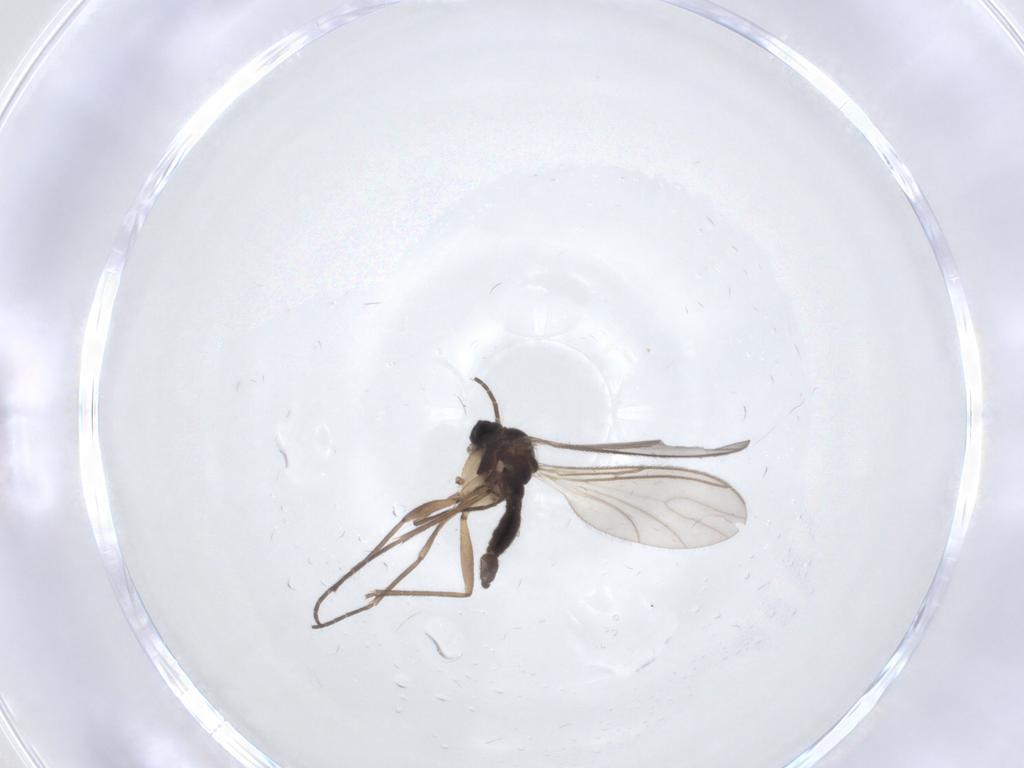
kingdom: Animalia
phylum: Arthropoda
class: Insecta
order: Diptera
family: Sciaridae
